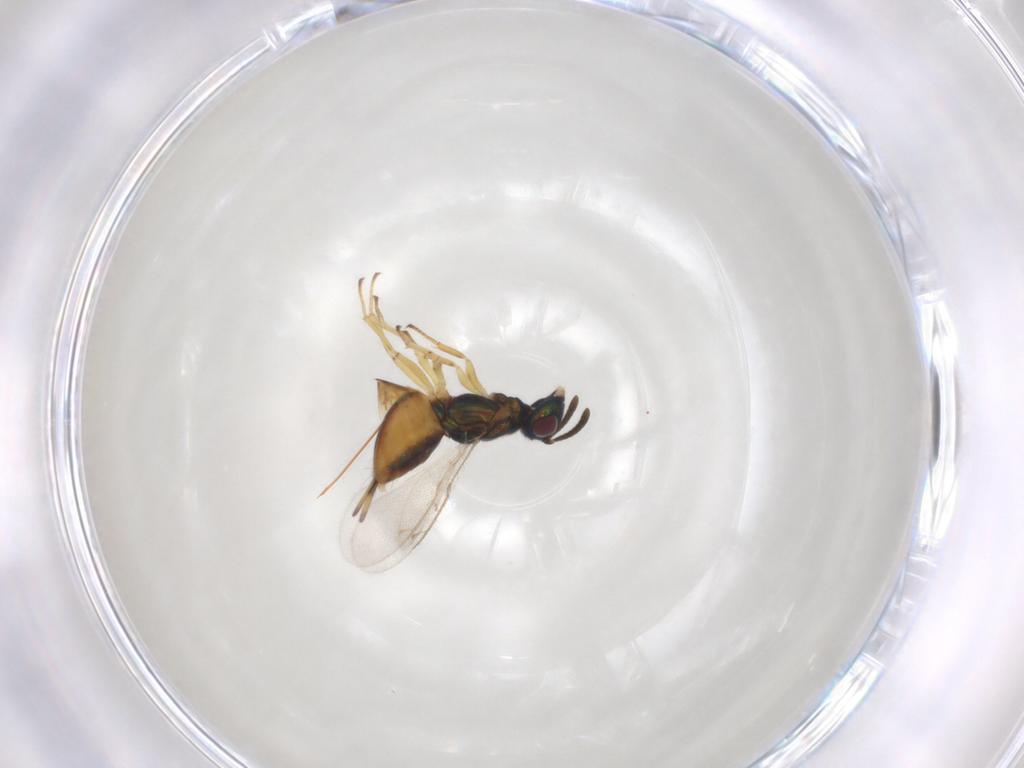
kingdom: Animalia
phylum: Arthropoda
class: Insecta
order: Hymenoptera
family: Eupelmidae
